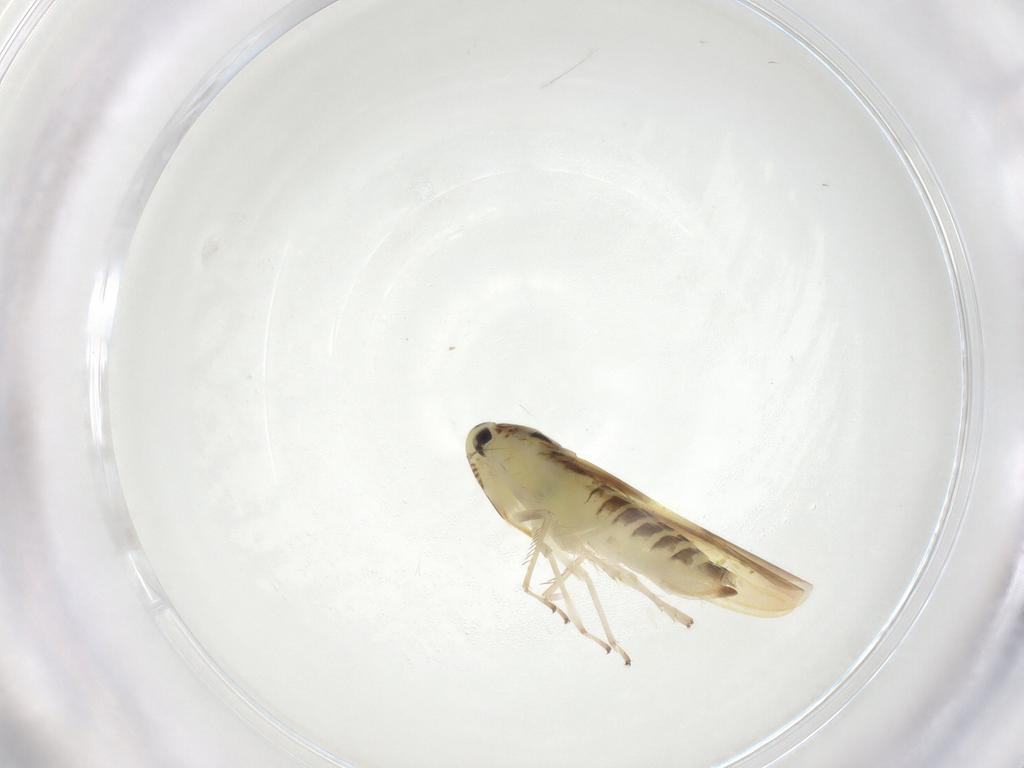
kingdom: Animalia
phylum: Arthropoda
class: Insecta
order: Hemiptera
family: Cicadellidae
